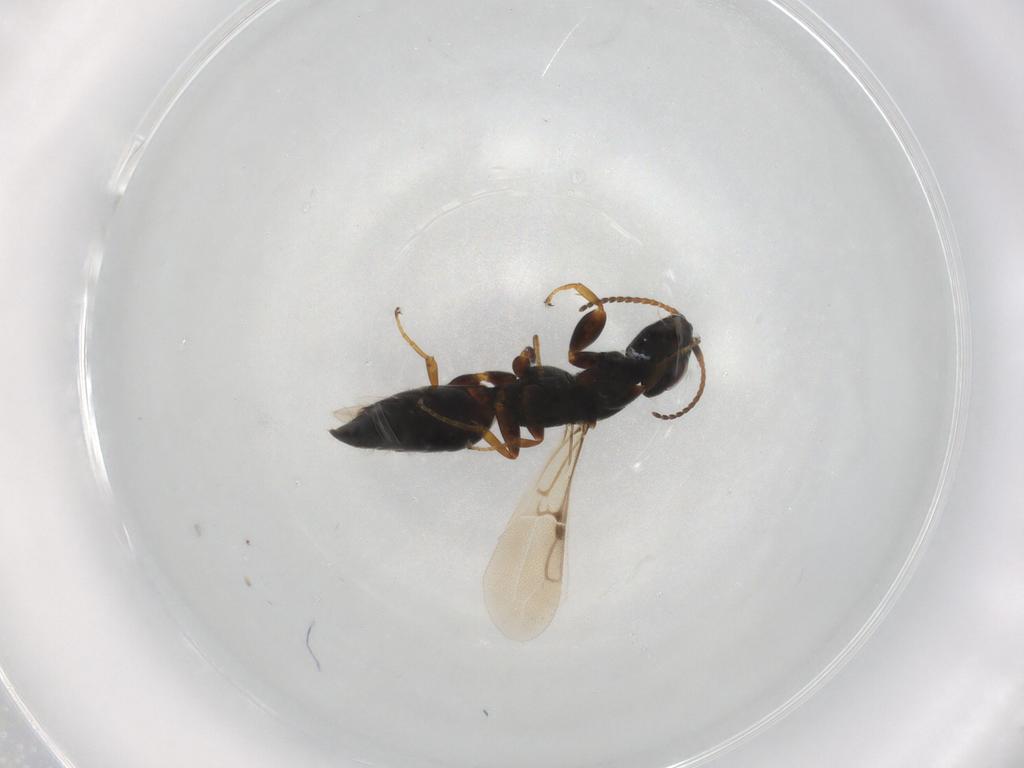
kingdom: Animalia
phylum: Arthropoda
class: Insecta
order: Hymenoptera
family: Bethylidae
